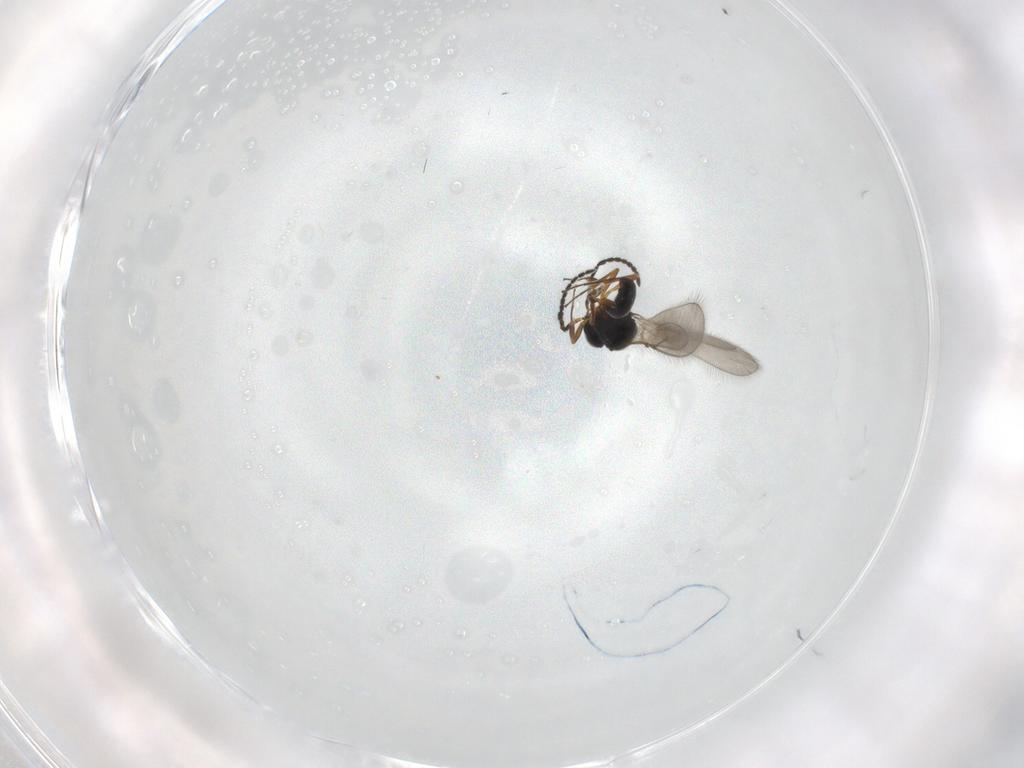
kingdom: Animalia
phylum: Arthropoda
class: Insecta
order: Hymenoptera
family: Scelionidae
